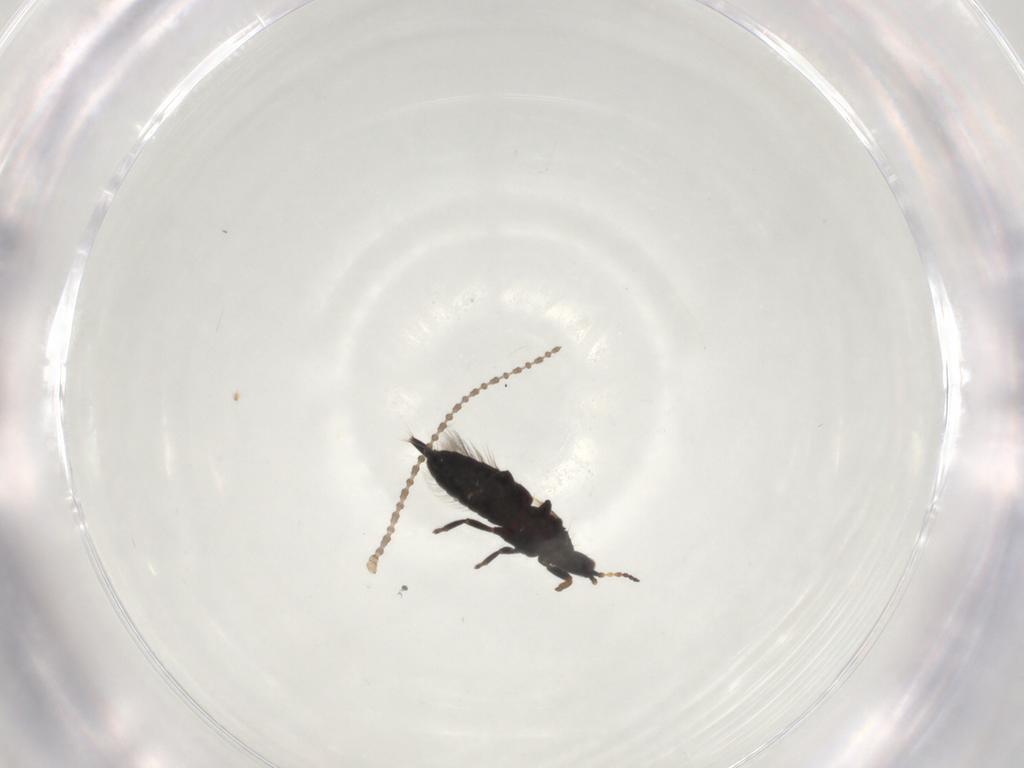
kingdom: Animalia
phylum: Arthropoda
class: Insecta
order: Thysanoptera
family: Phlaeothripidae
